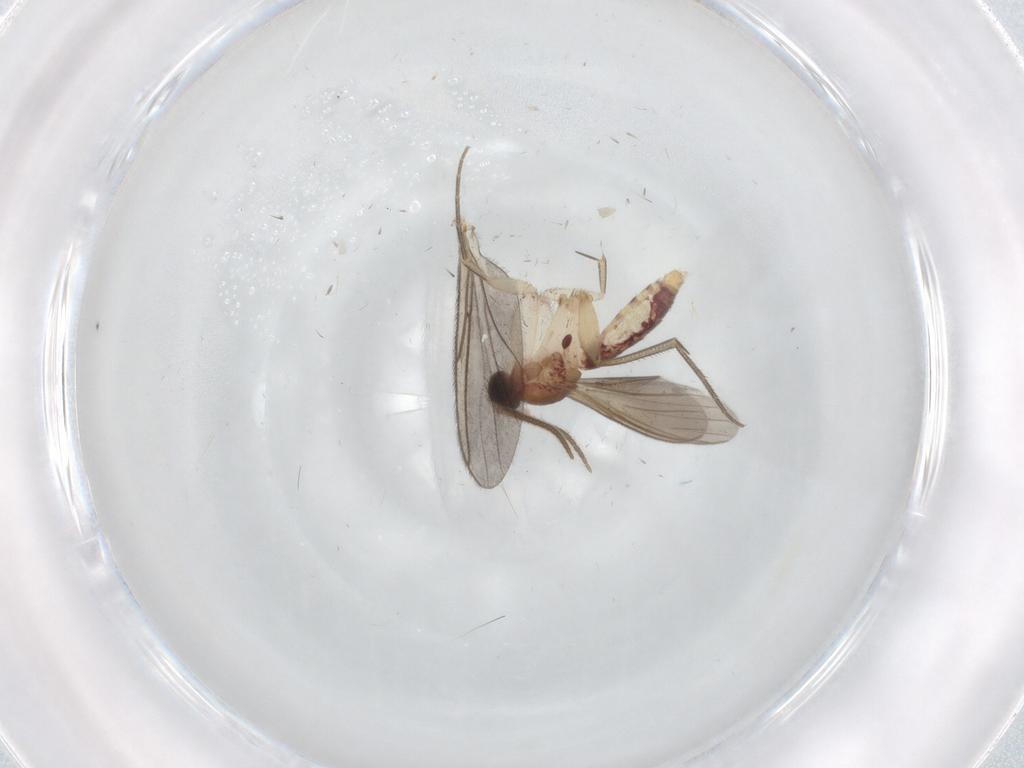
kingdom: Animalia
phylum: Arthropoda
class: Insecta
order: Diptera
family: Mycetophilidae
